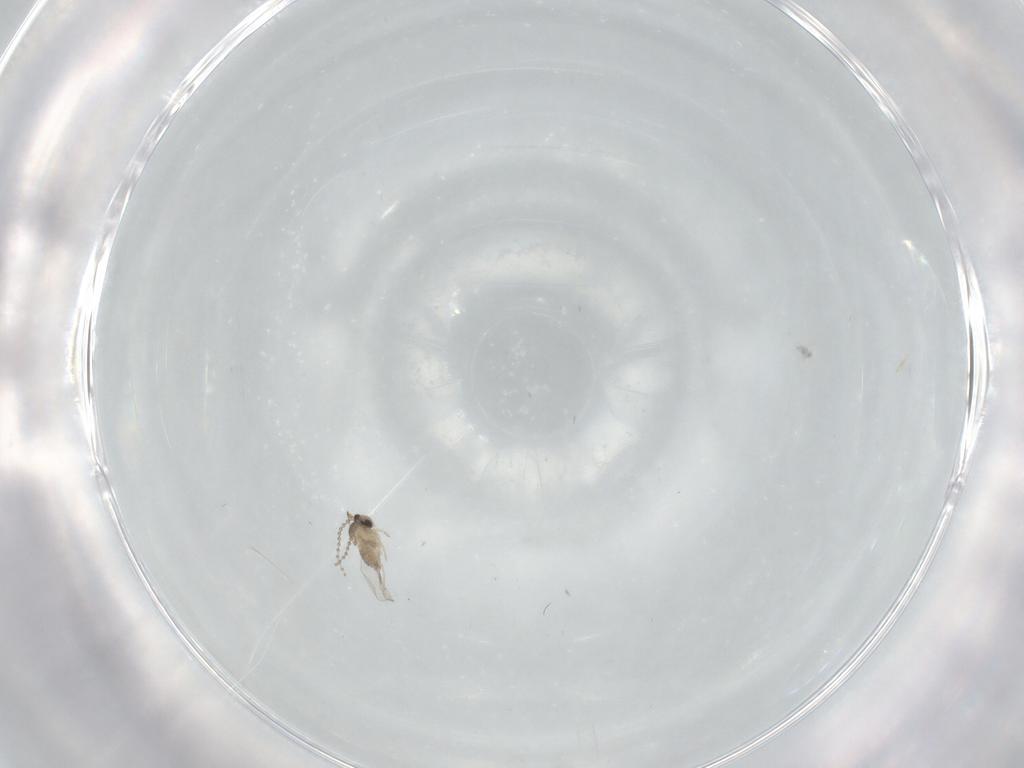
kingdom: Animalia
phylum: Arthropoda
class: Insecta
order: Diptera
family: Cecidomyiidae
